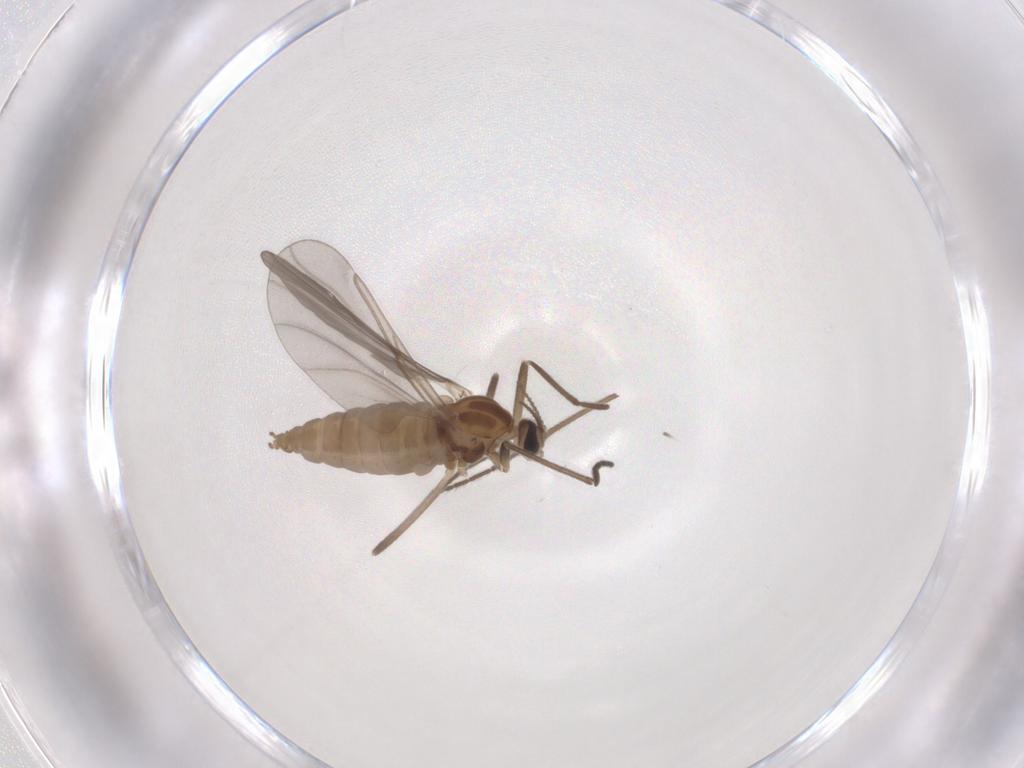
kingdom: Animalia
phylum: Arthropoda
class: Insecta
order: Diptera
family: Cecidomyiidae
